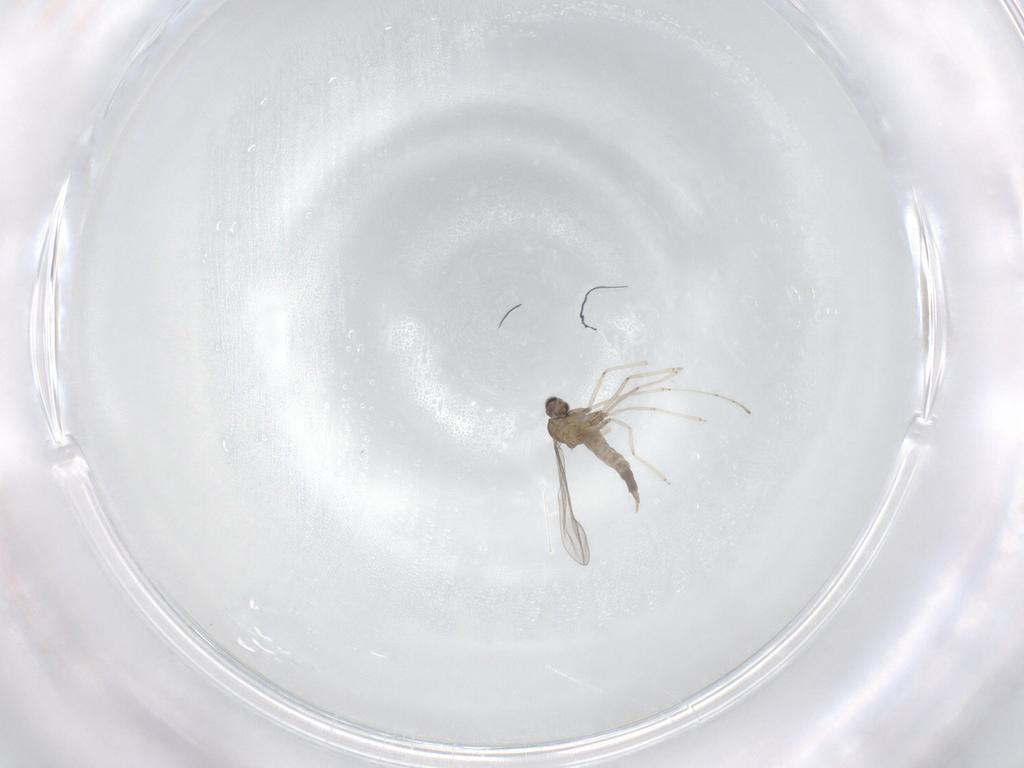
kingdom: Animalia
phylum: Arthropoda
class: Insecta
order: Diptera
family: Cecidomyiidae
